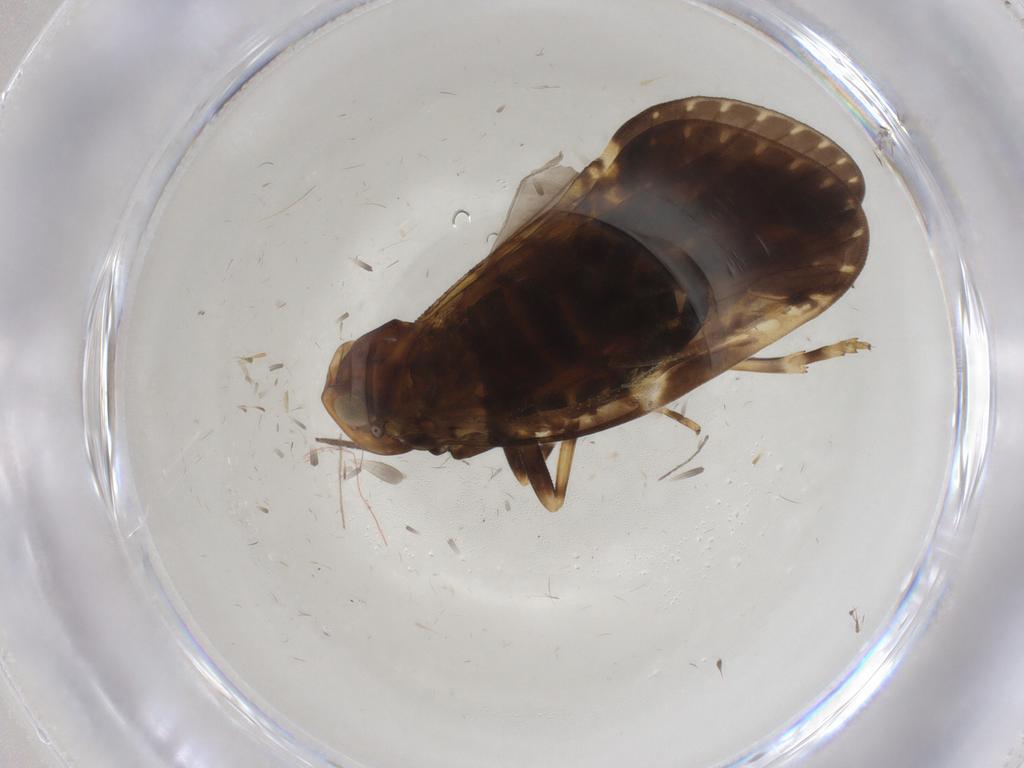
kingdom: Animalia
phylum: Arthropoda
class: Insecta
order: Hemiptera
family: Cixiidae
